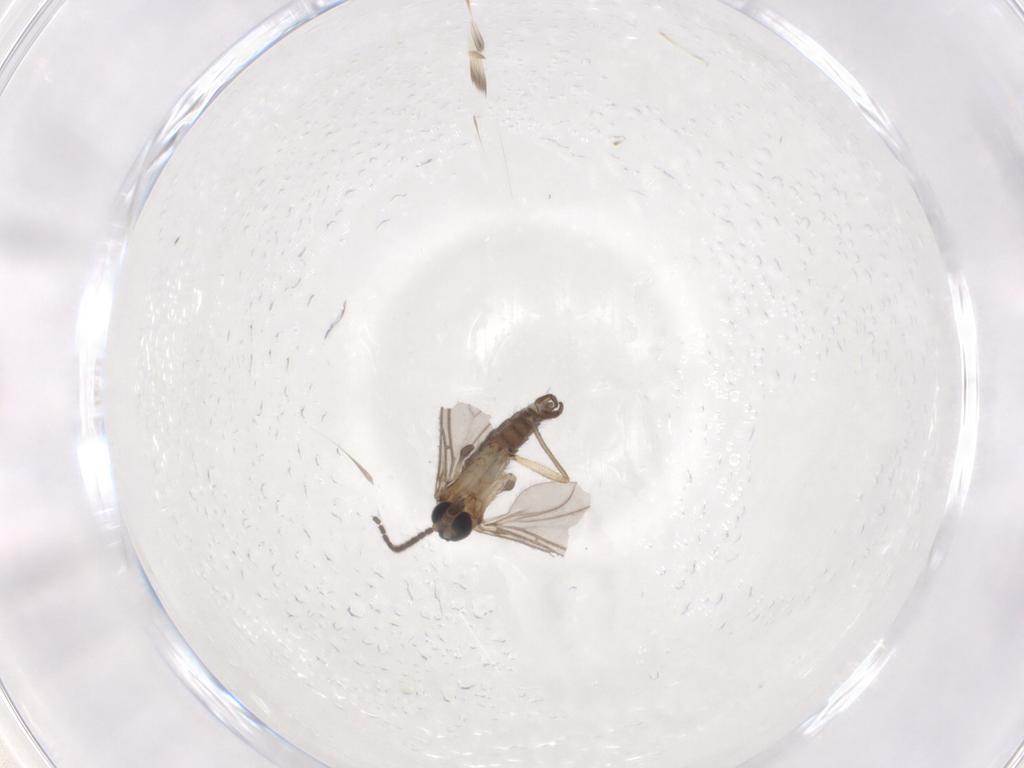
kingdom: Animalia
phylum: Arthropoda
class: Insecta
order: Diptera
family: Sciaridae
